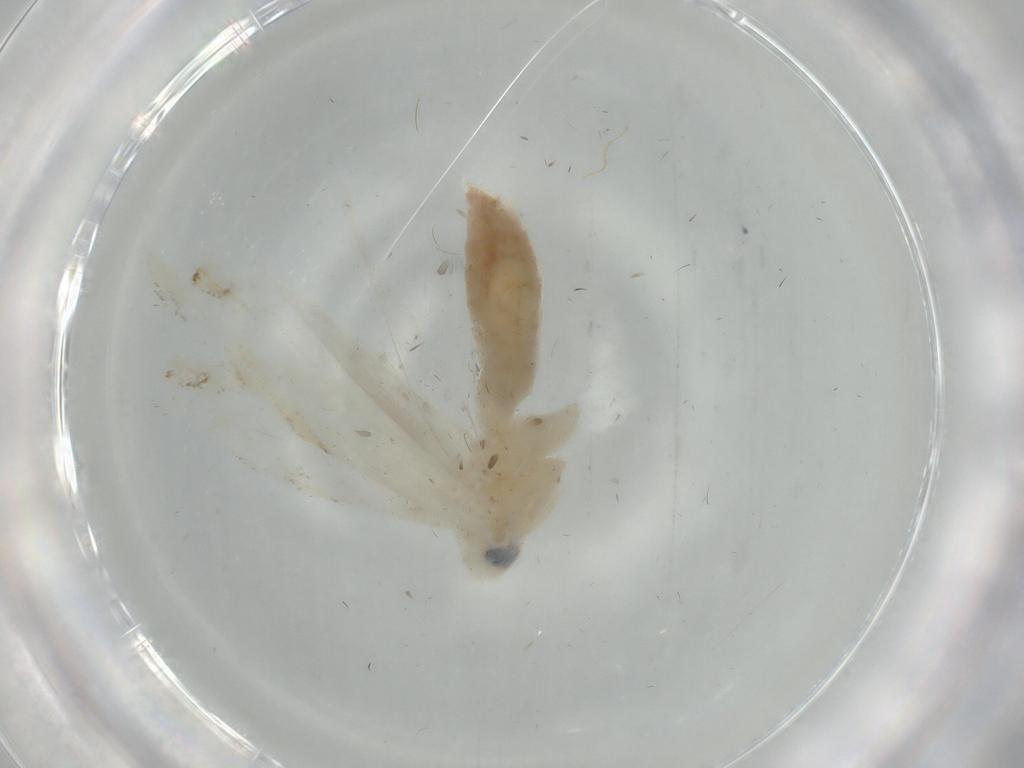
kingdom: Animalia
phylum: Arthropoda
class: Insecta
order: Lepidoptera
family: Lyonetiidae
